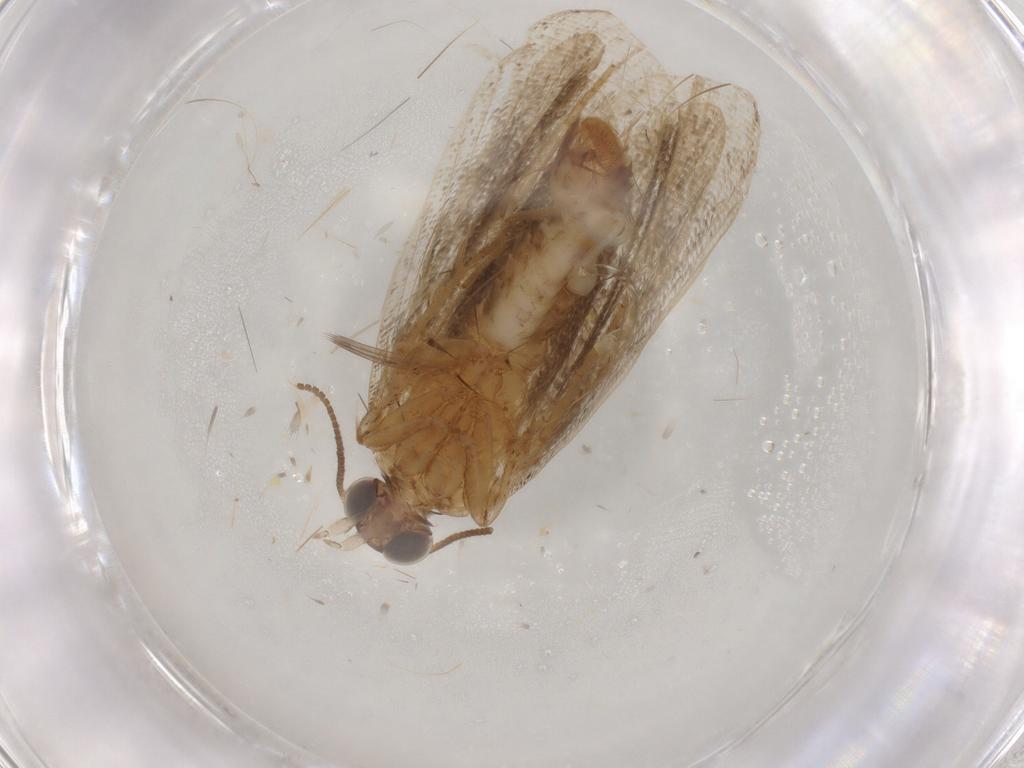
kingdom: Animalia
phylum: Arthropoda
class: Insecta
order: Lepidoptera
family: Tortricidae
